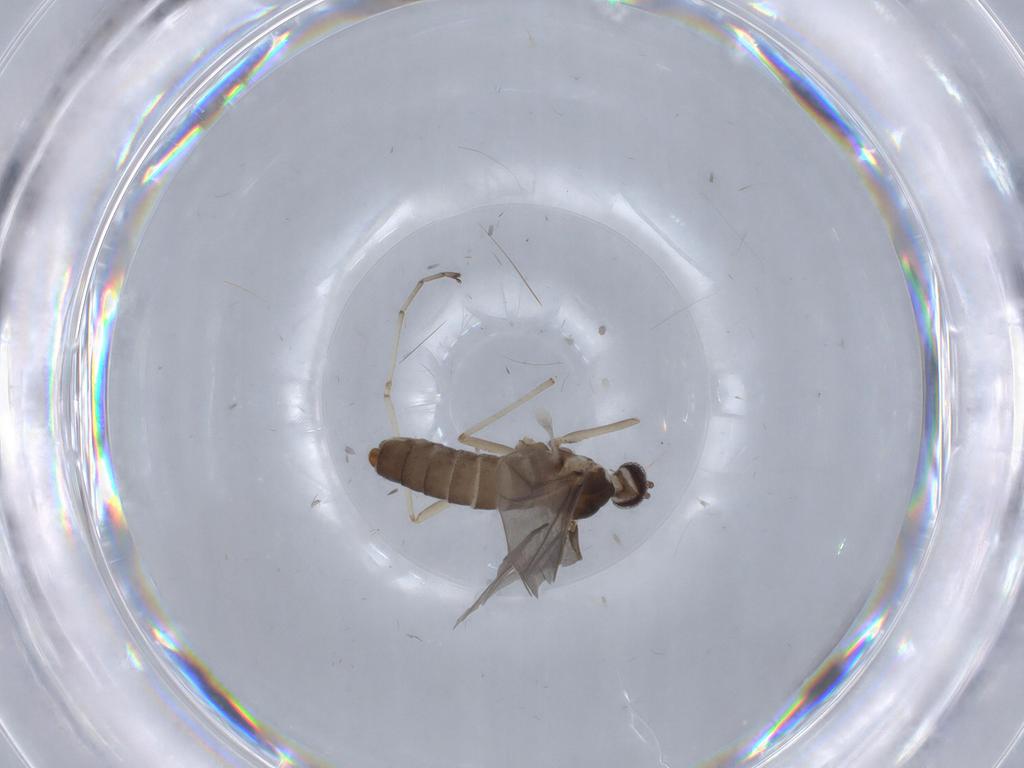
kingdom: Animalia
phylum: Arthropoda
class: Insecta
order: Diptera
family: Cecidomyiidae
